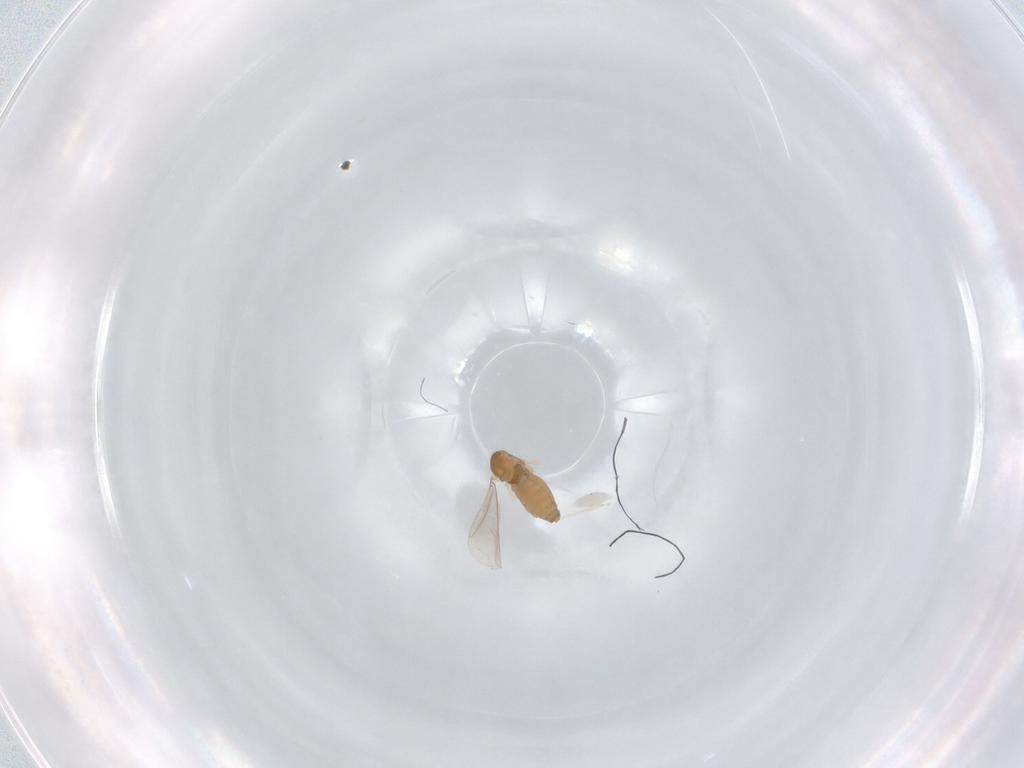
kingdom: Animalia
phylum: Arthropoda
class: Insecta
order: Diptera
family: Cecidomyiidae
